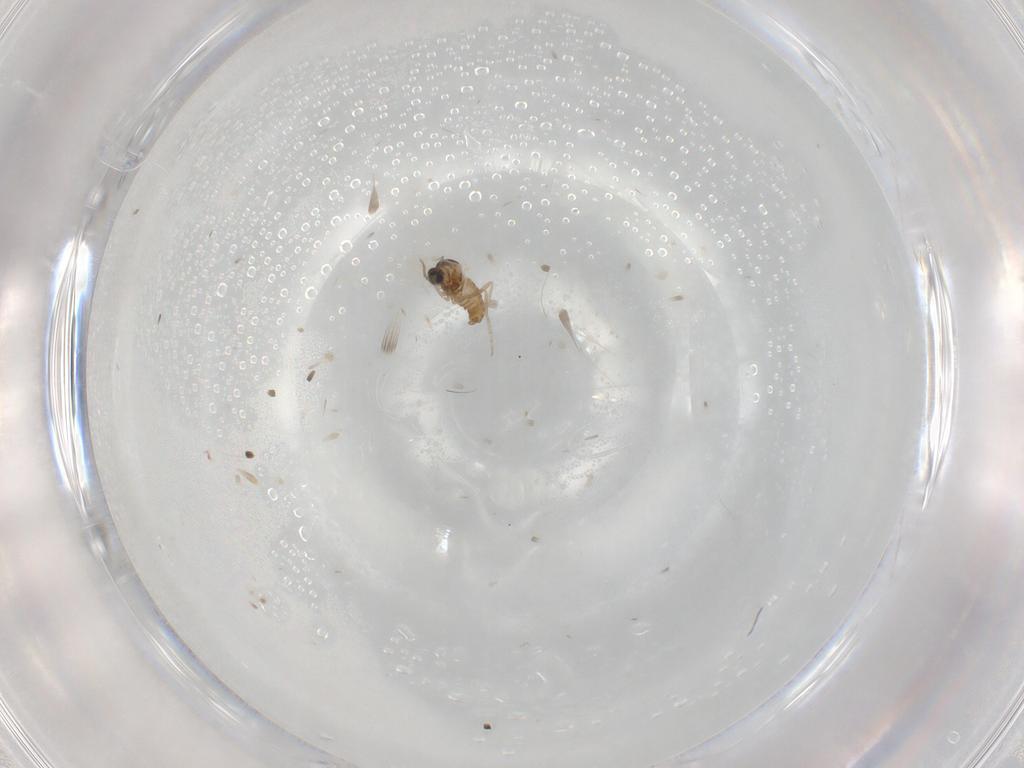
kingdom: Animalia
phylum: Arthropoda
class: Insecta
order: Diptera
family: Cecidomyiidae
